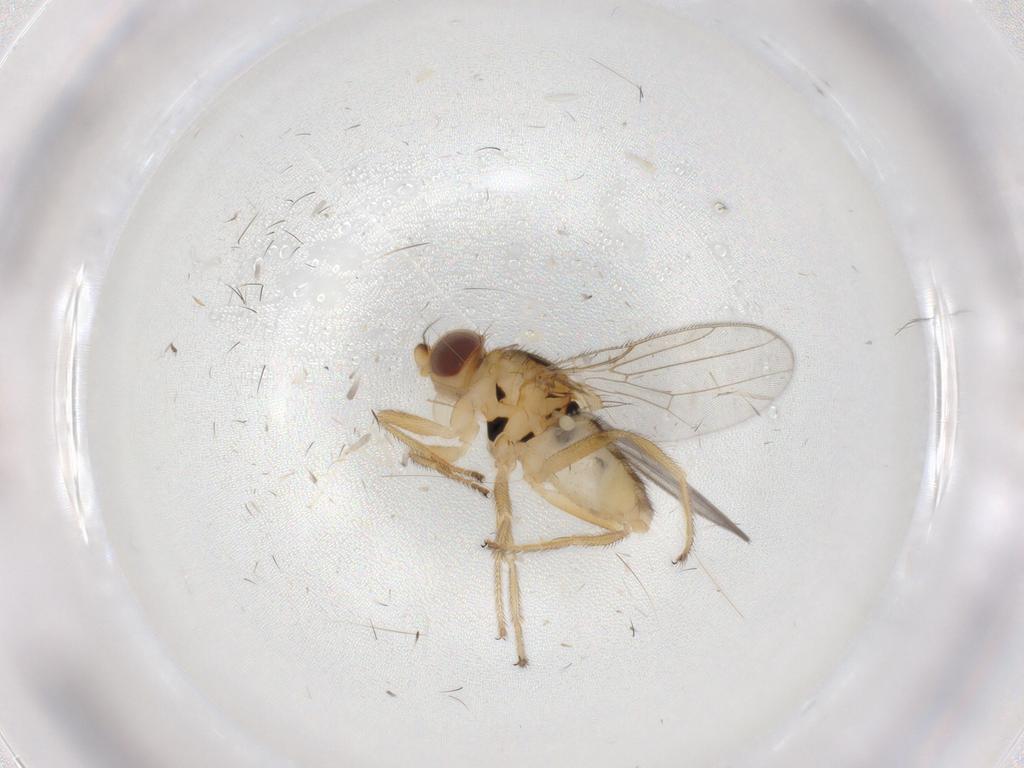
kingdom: Animalia
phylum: Arthropoda
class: Insecta
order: Diptera
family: Chloropidae
